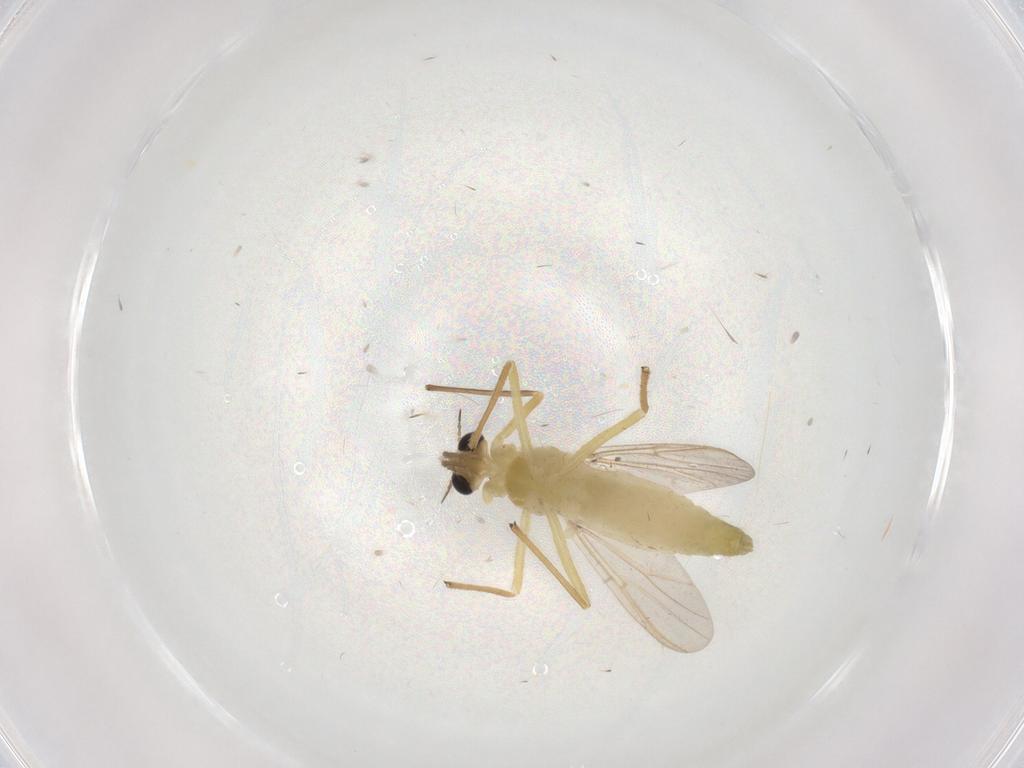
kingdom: Animalia
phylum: Arthropoda
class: Insecta
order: Diptera
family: Chironomidae
